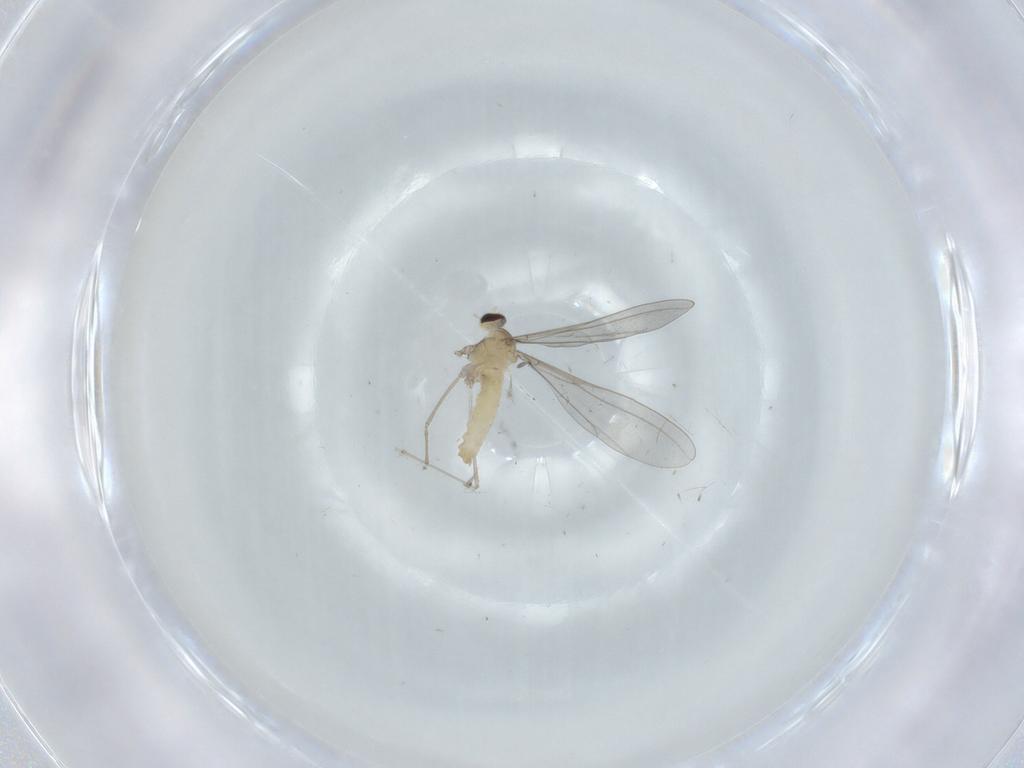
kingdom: Animalia
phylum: Arthropoda
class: Insecta
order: Diptera
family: Cecidomyiidae
